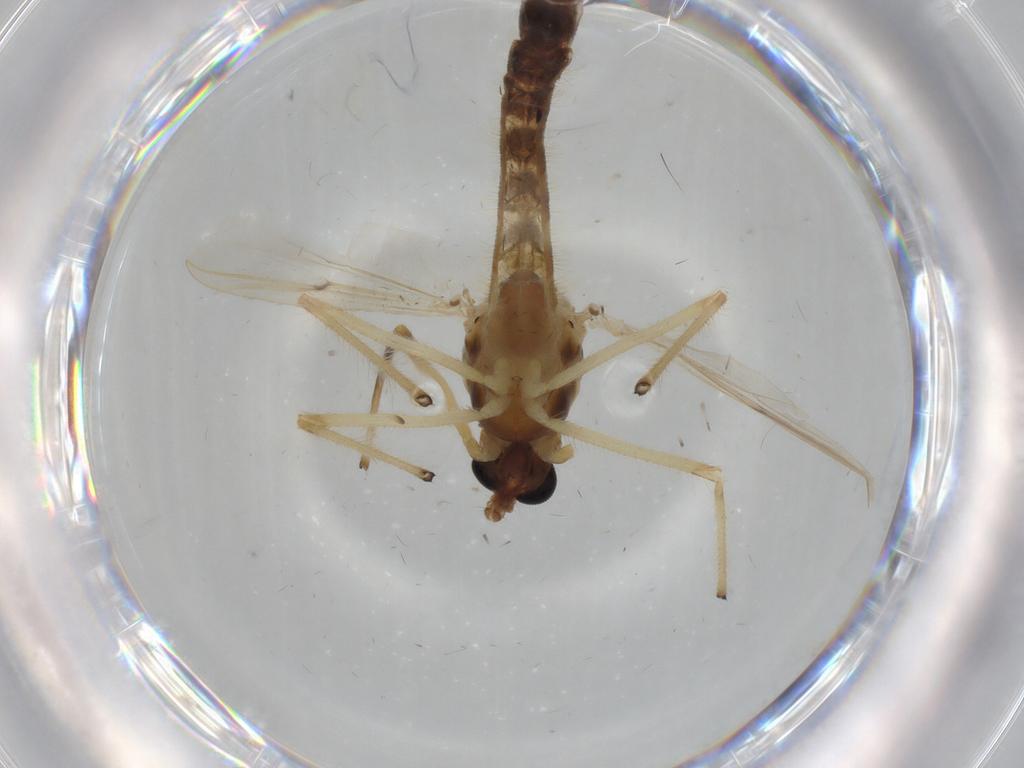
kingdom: Animalia
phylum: Arthropoda
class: Insecta
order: Diptera
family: Chironomidae
